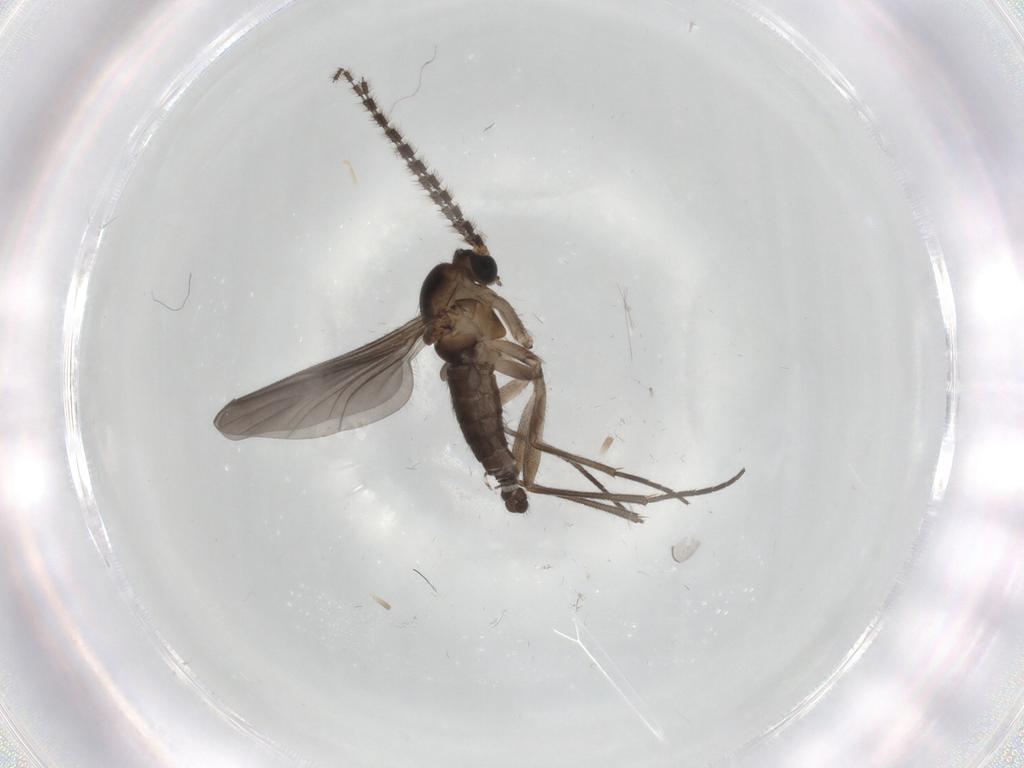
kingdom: Animalia
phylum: Arthropoda
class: Insecta
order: Diptera
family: Sciaridae
